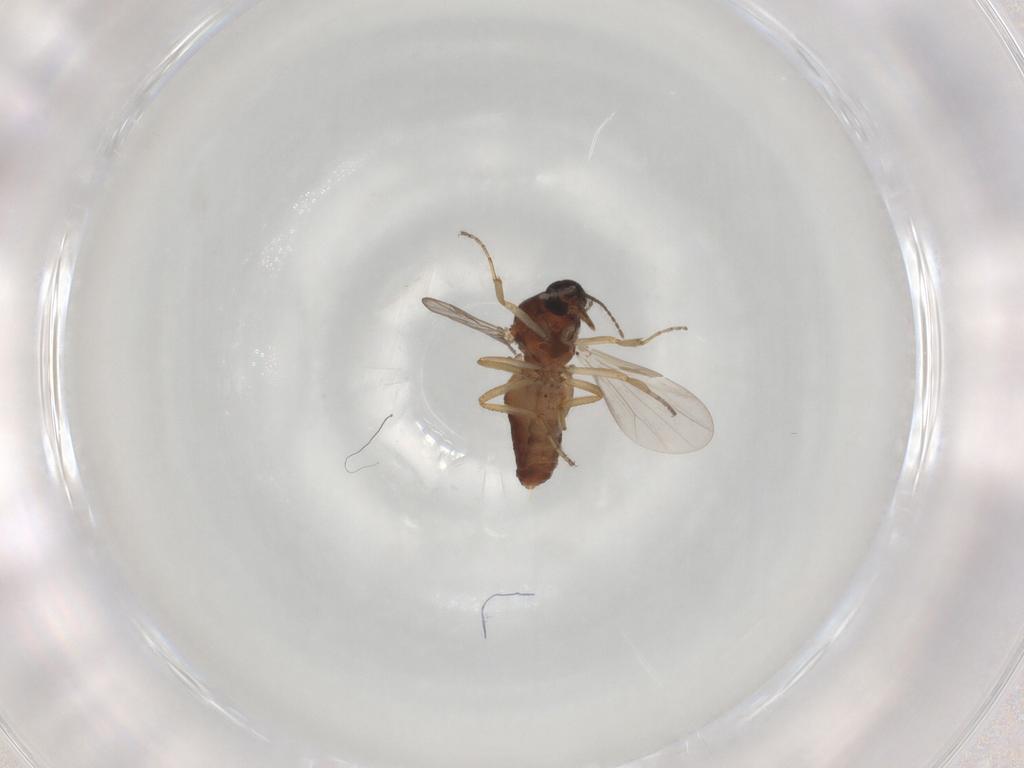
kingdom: Animalia
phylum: Arthropoda
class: Insecta
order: Diptera
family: Ceratopogonidae
